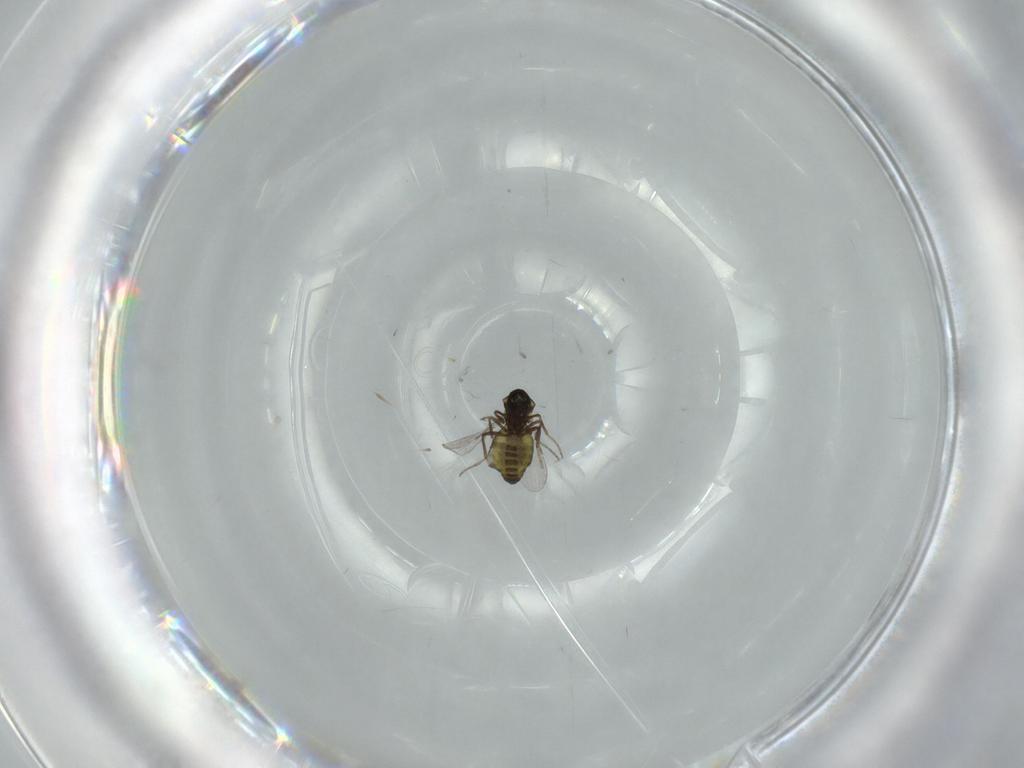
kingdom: Animalia
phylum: Arthropoda
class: Insecta
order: Diptera
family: Ceratopogonidae
